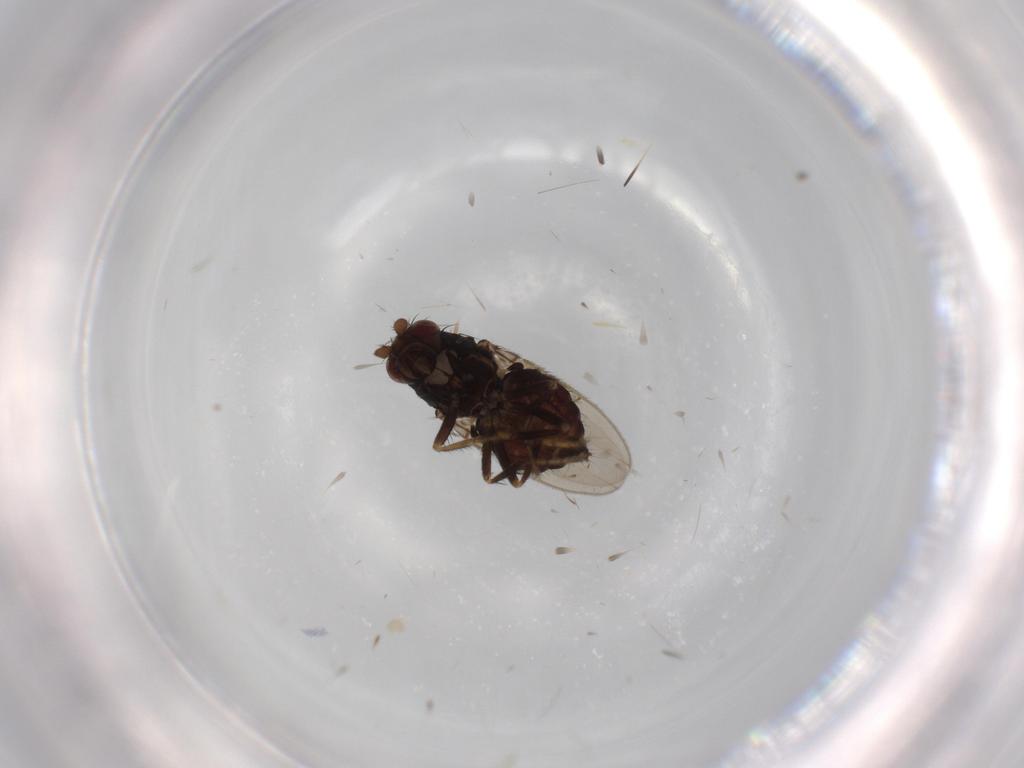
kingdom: Animalia
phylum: Arthropoda
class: Insecta
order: Diptera
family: Sphaeroceridae
